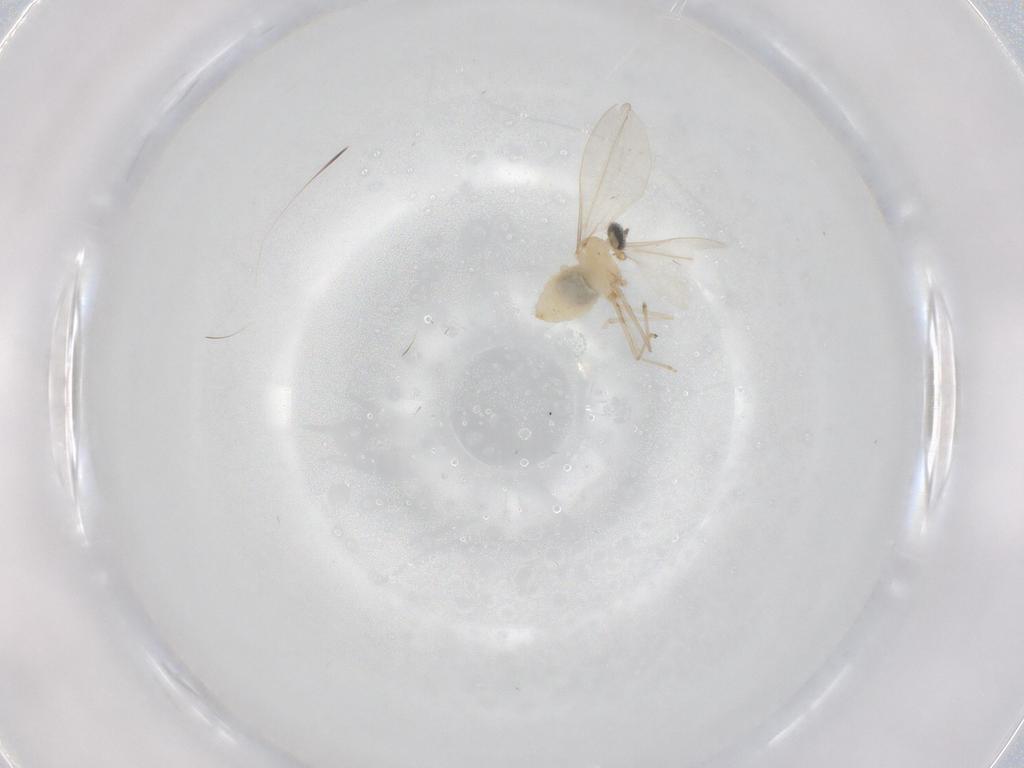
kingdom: Animalia
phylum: Arthropoda
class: Insecta
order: Diptera
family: Cecidomyiidae
